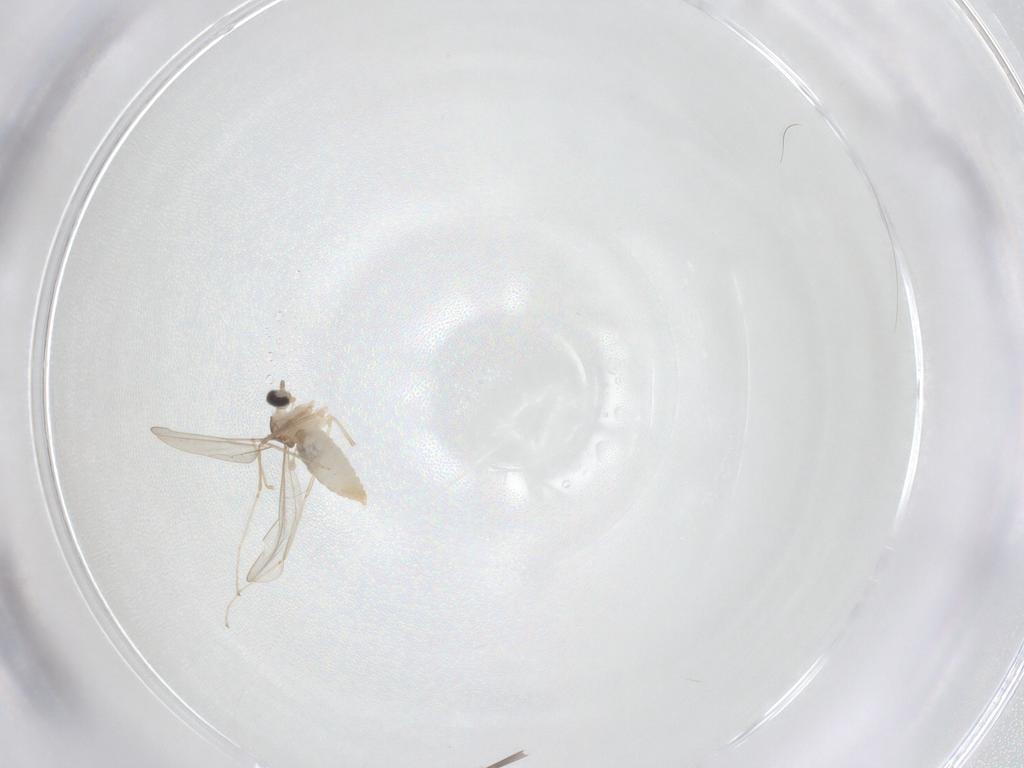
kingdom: Animalia
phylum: Arthropoda
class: Insecta
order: Diptera
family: Cecidomyiidae
